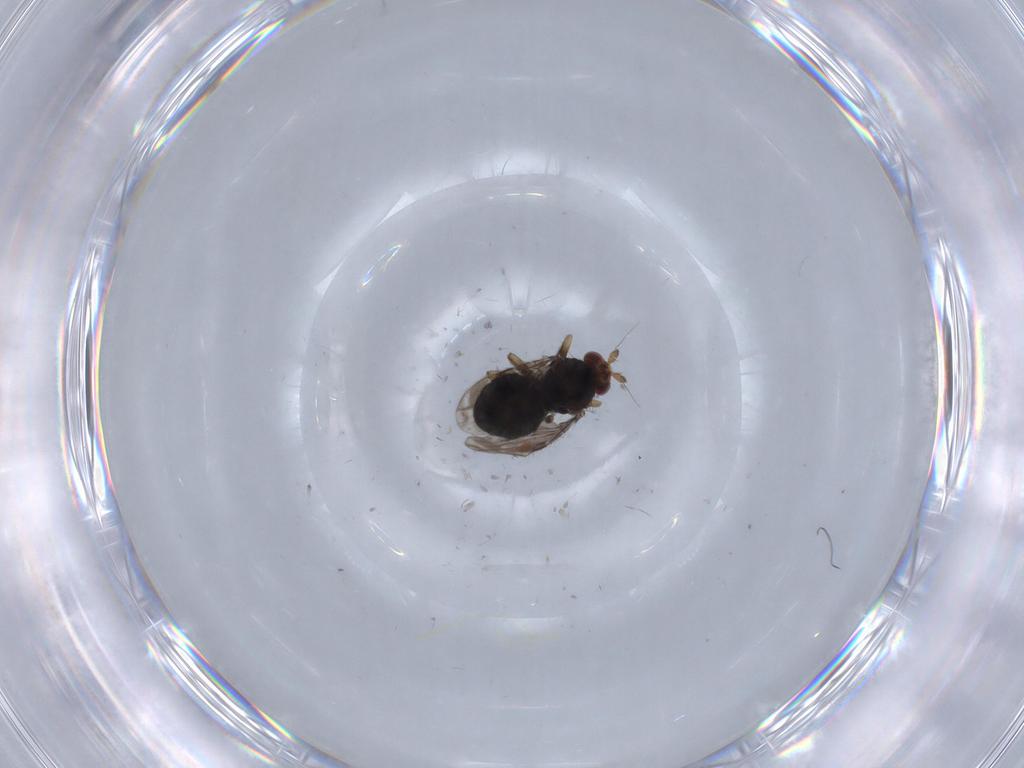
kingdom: Animalia
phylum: Arthropoda
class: Insecta
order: Diptera
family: Sphaeroceridae
